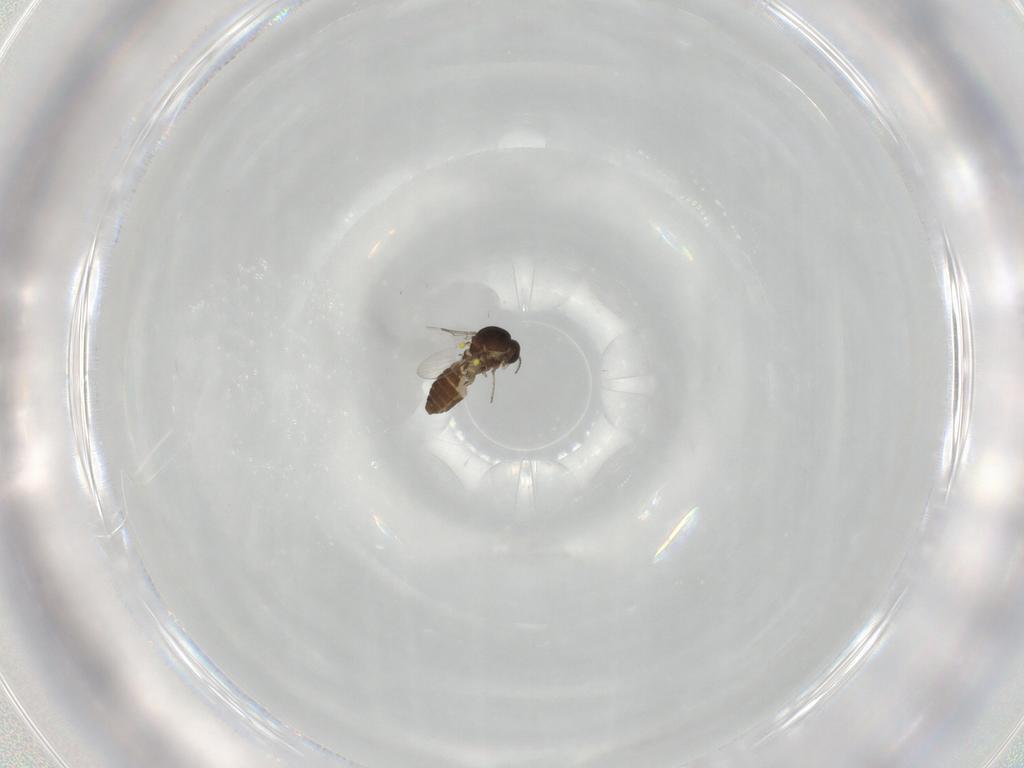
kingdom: Animalia
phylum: Arthropoda
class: Insecta
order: Diptera
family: Ceratopogonidae
